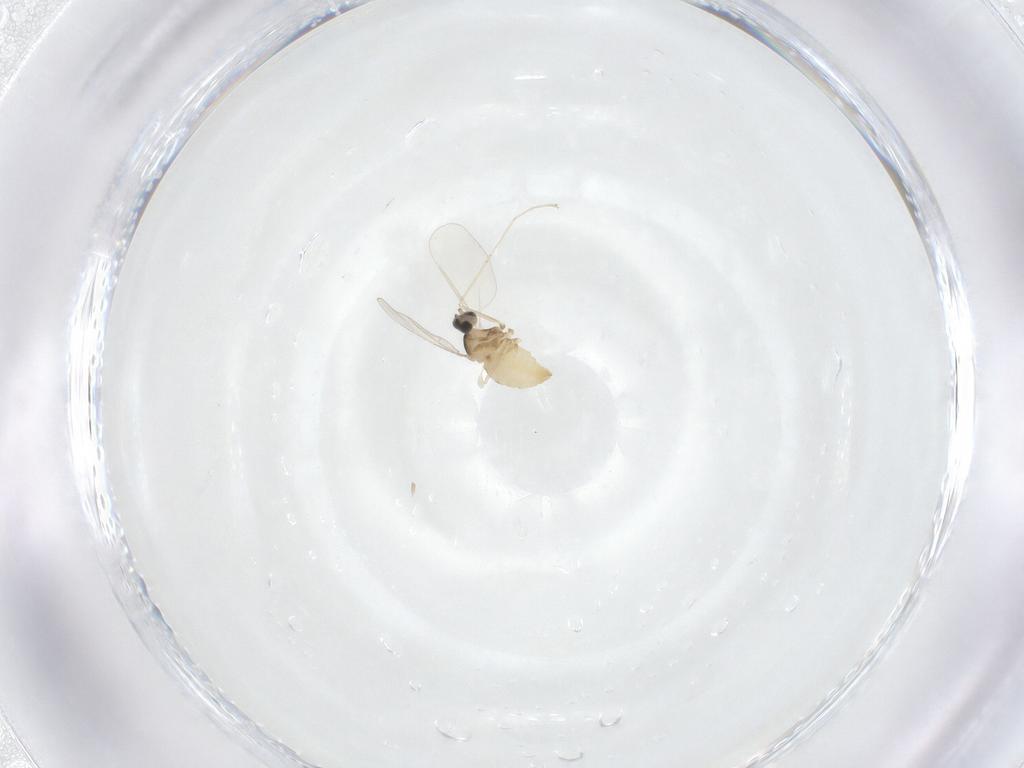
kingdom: Animalia
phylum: Arthropoda
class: Insecta
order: Diptera
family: Cecidomyiidae
